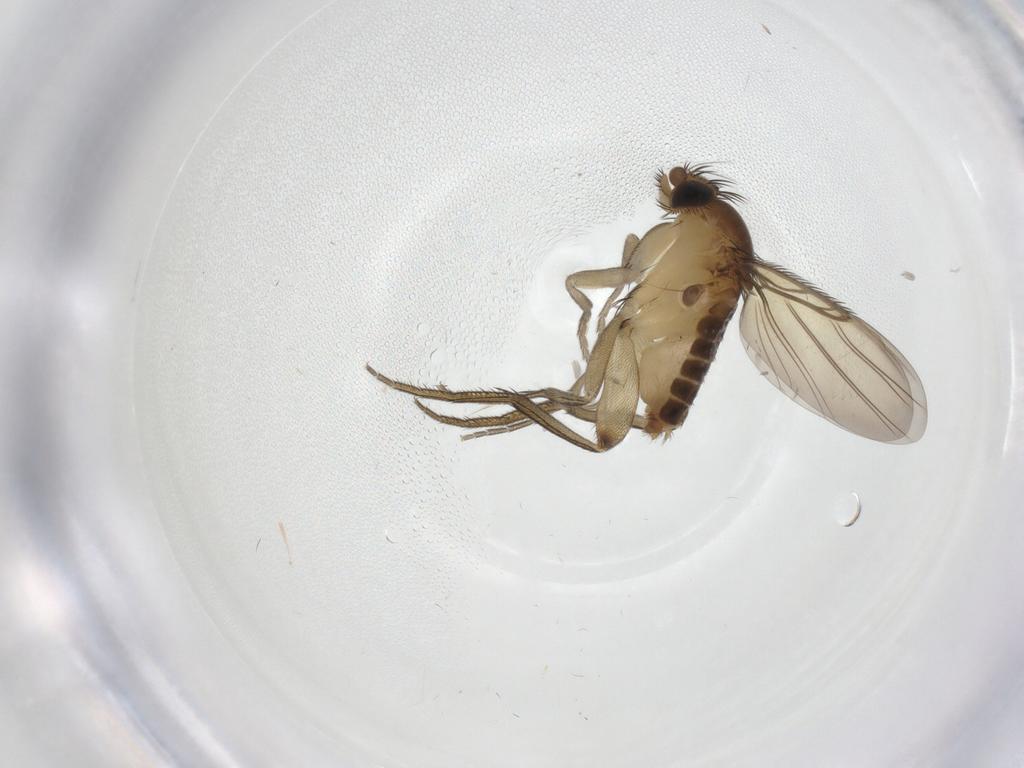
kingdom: Animalia
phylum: Arthropoda
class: Insecta
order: Diptera
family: Phoridae
